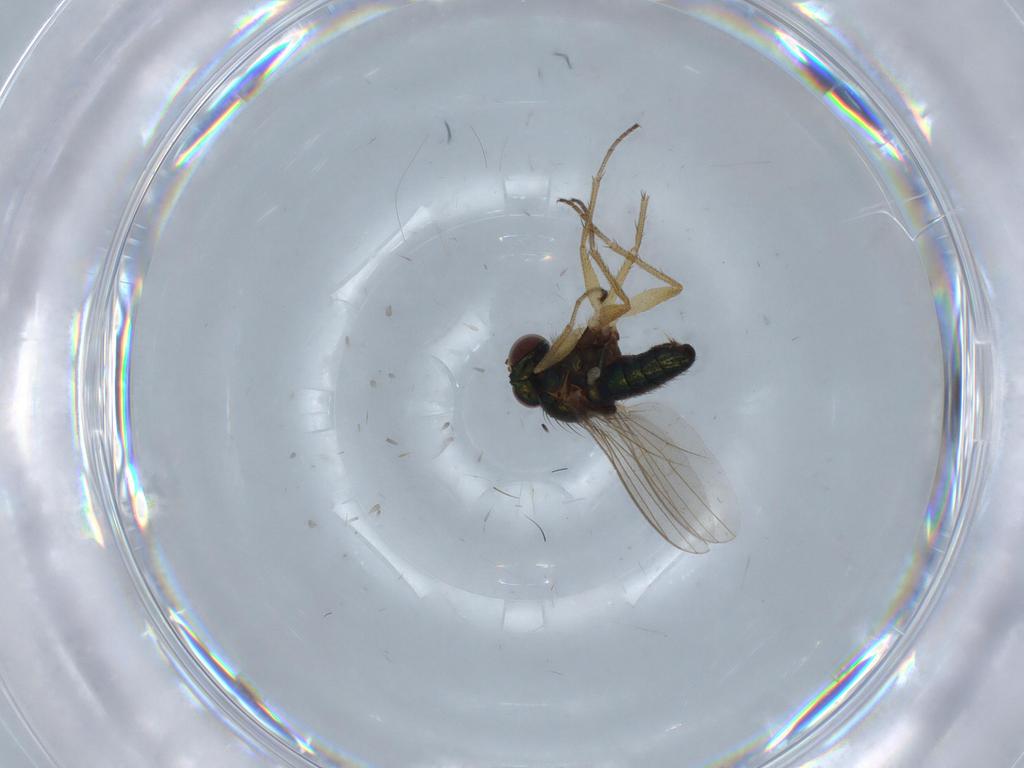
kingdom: Animalia
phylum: Arthropoda
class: Insecta
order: Diptera
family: Dolichopodidae
